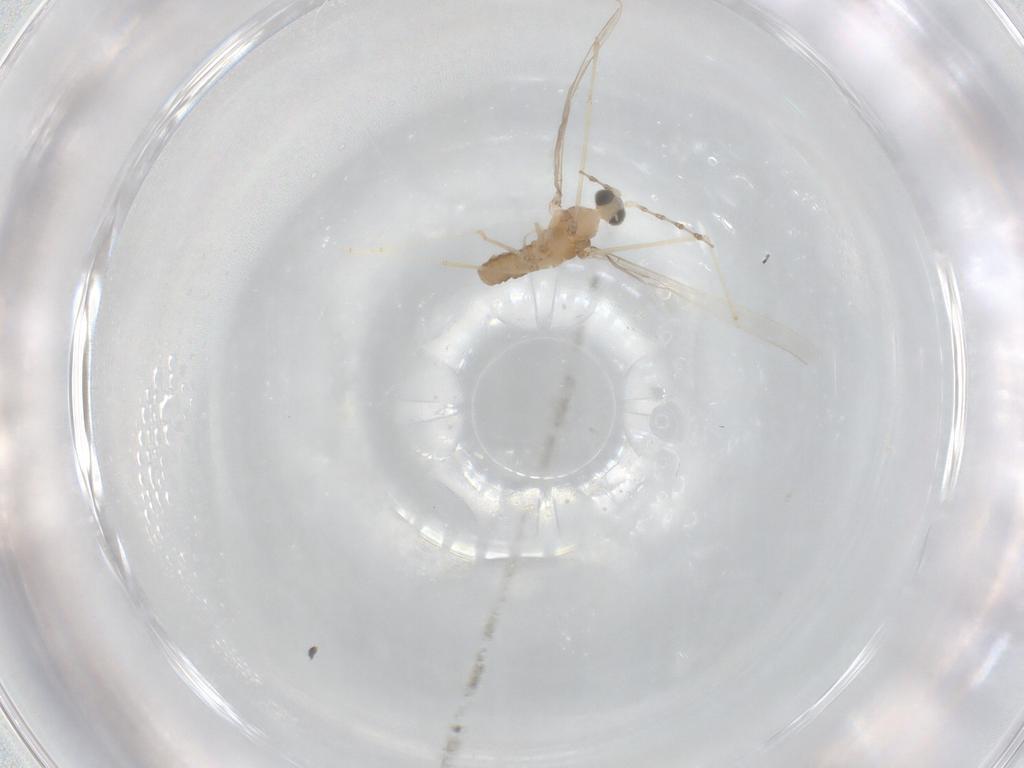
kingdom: Animalia
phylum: Arthropoda
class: Insecta
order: Diptera
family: Cecidomyiidae
